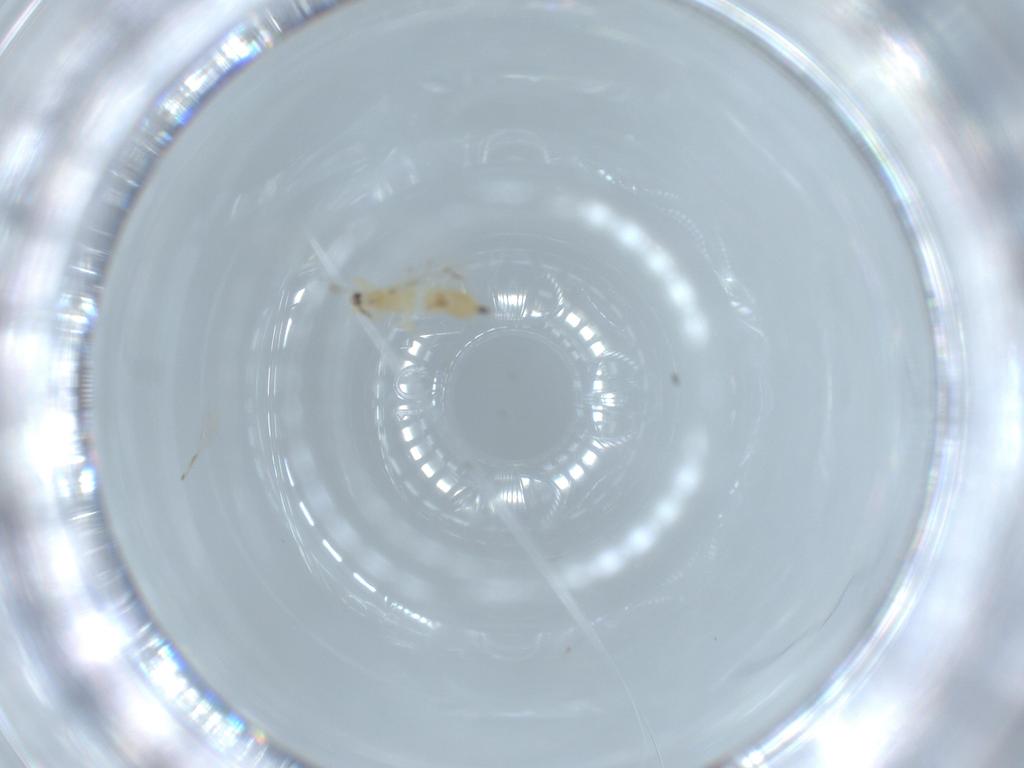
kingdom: Animalia
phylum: Arthropoda
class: Insecta
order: Thysanoptera
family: Phlaeothripidae
